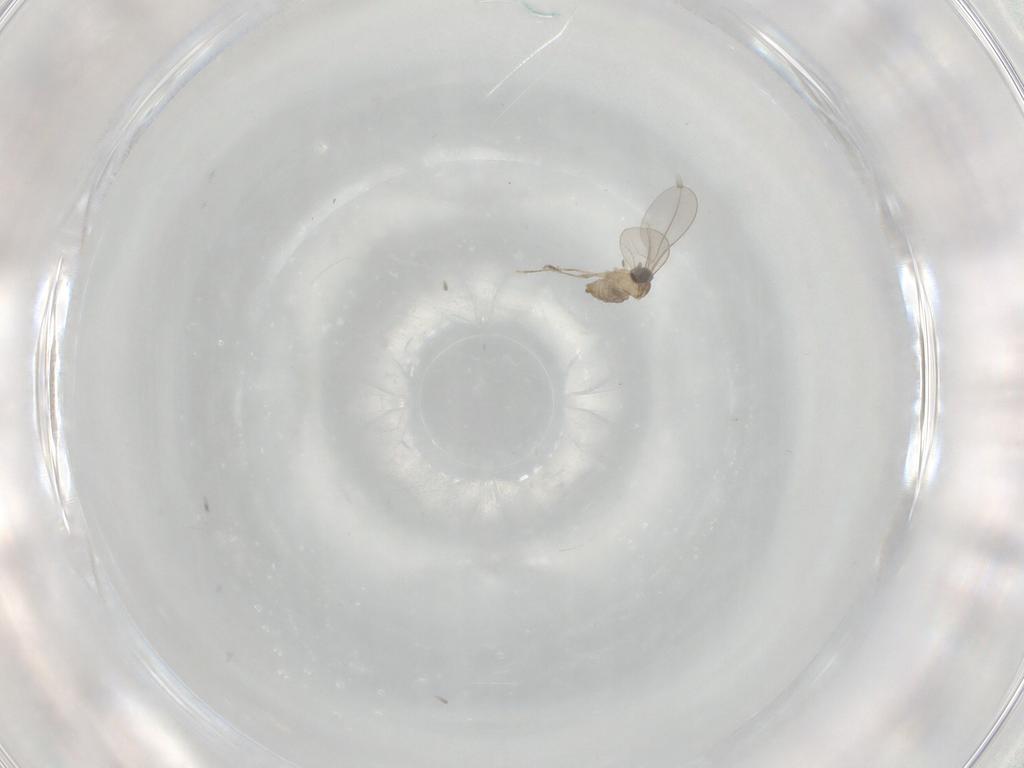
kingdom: Animalia
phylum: Arthropoda
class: Insecta
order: Diptera
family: Cecidomyiidae
